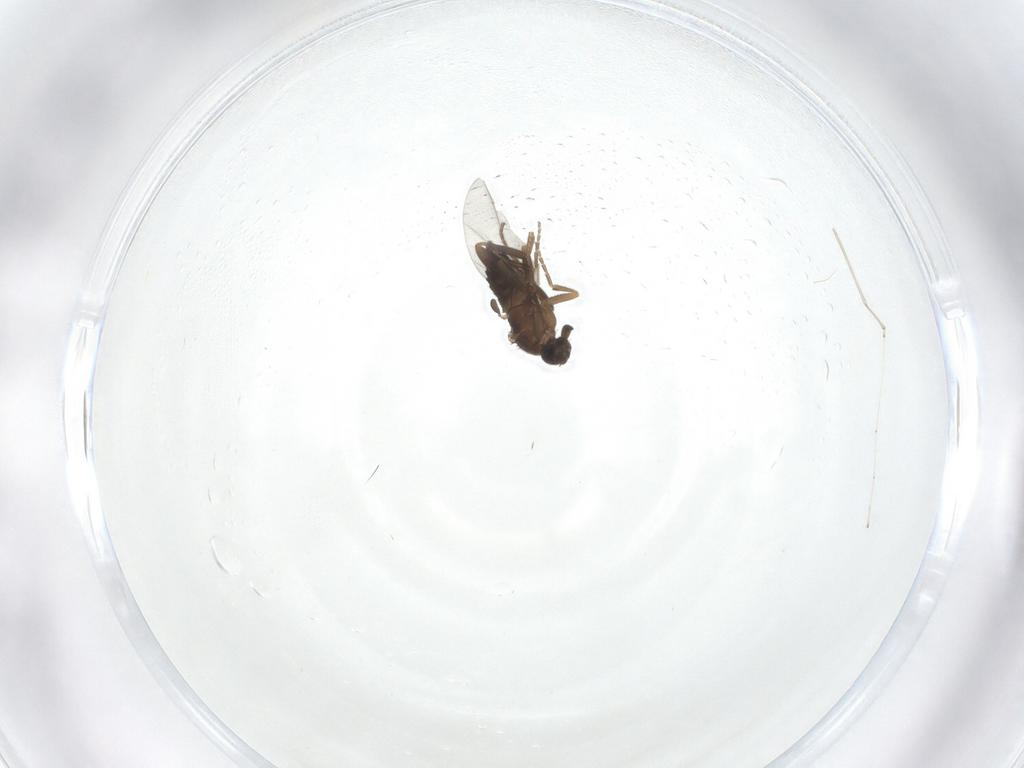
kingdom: Animalia
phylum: Arthropoda
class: Insecta
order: Diptera
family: Cecidomyiidae
